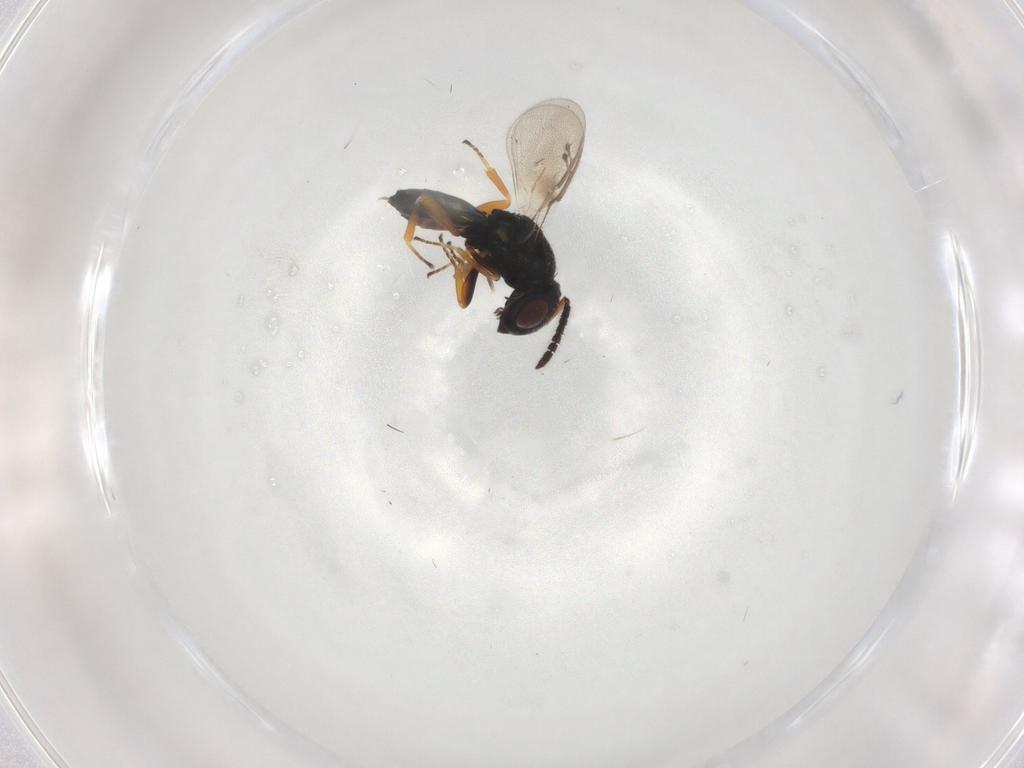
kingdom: Animalia
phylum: Arthropoda
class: Insecta
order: Hymenoptera
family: Pteromalidae
